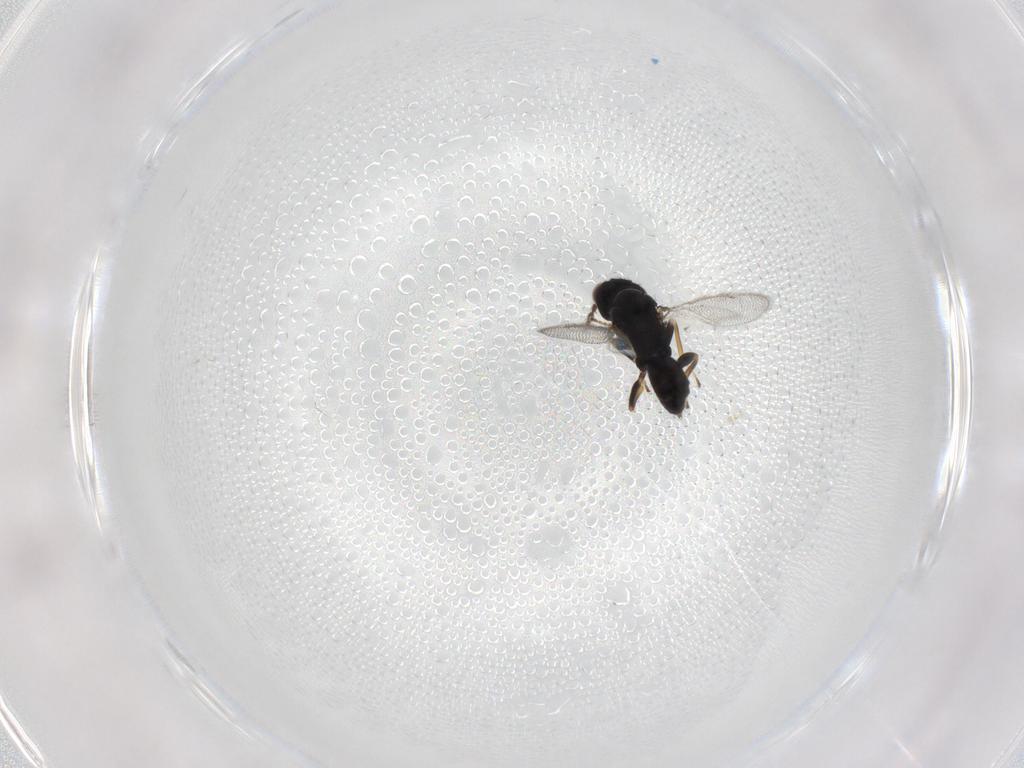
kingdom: Animalia
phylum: Arthropoda
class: Insecta
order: Hymenoptera
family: Eulophidae
